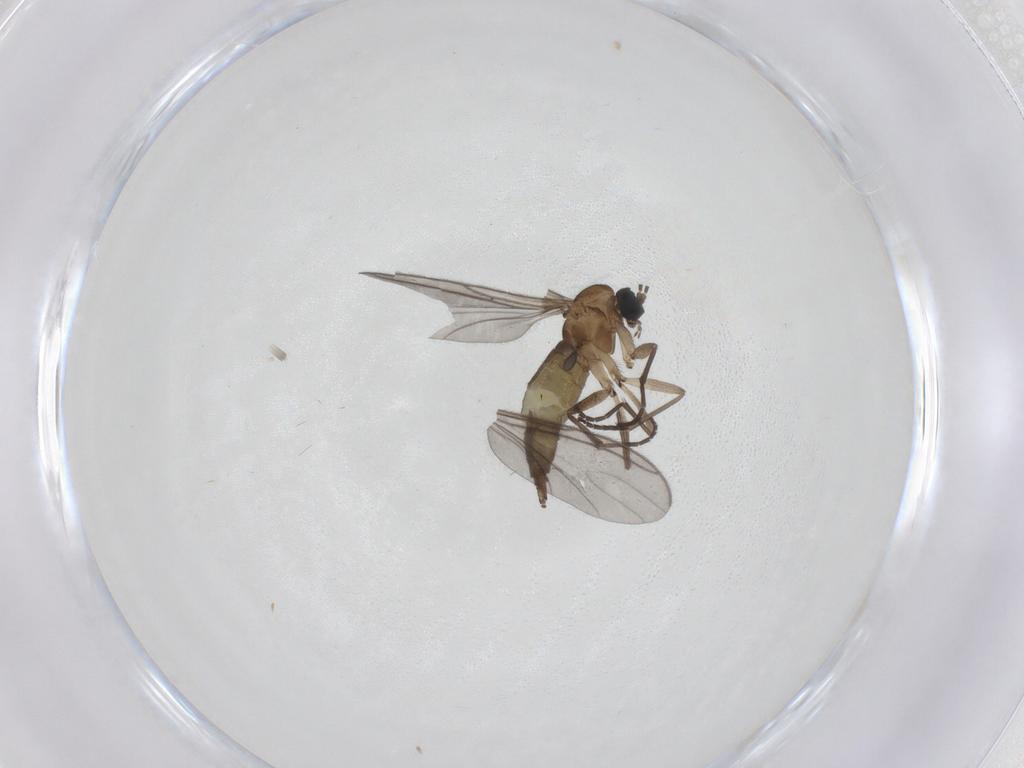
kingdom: Animalia
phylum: Arthropoda
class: Insecta
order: Diptera
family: Sciaridae
